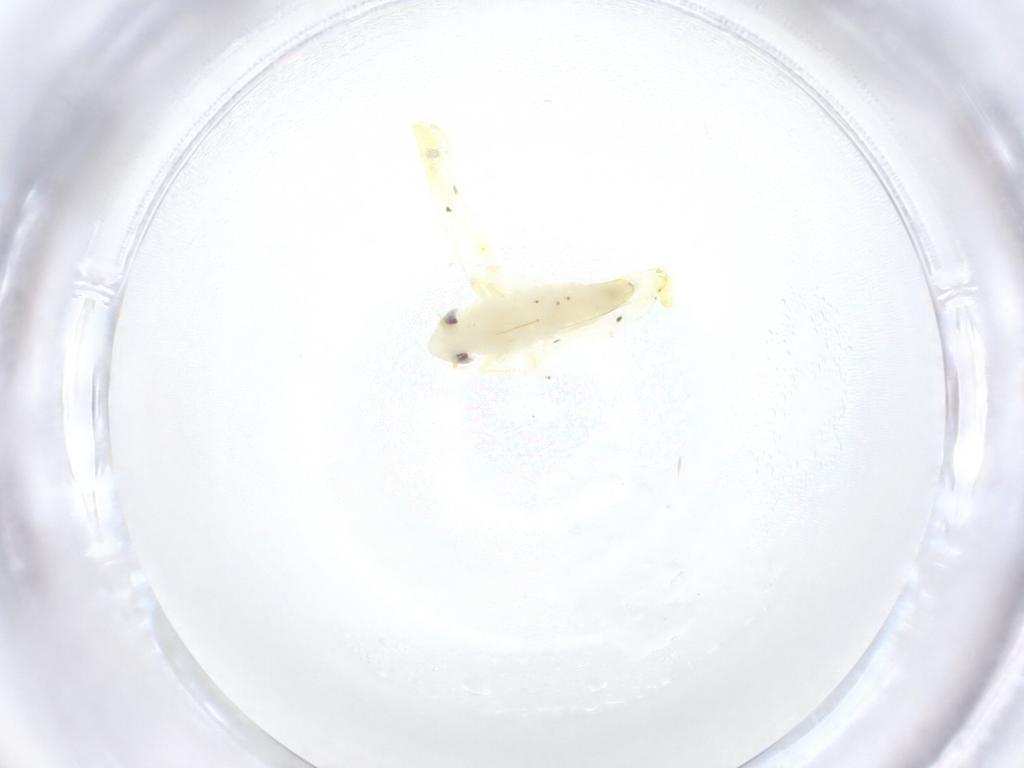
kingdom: Animalia
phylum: Arthropoda
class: Insecta
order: Hemiptera
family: Cicadellidae
